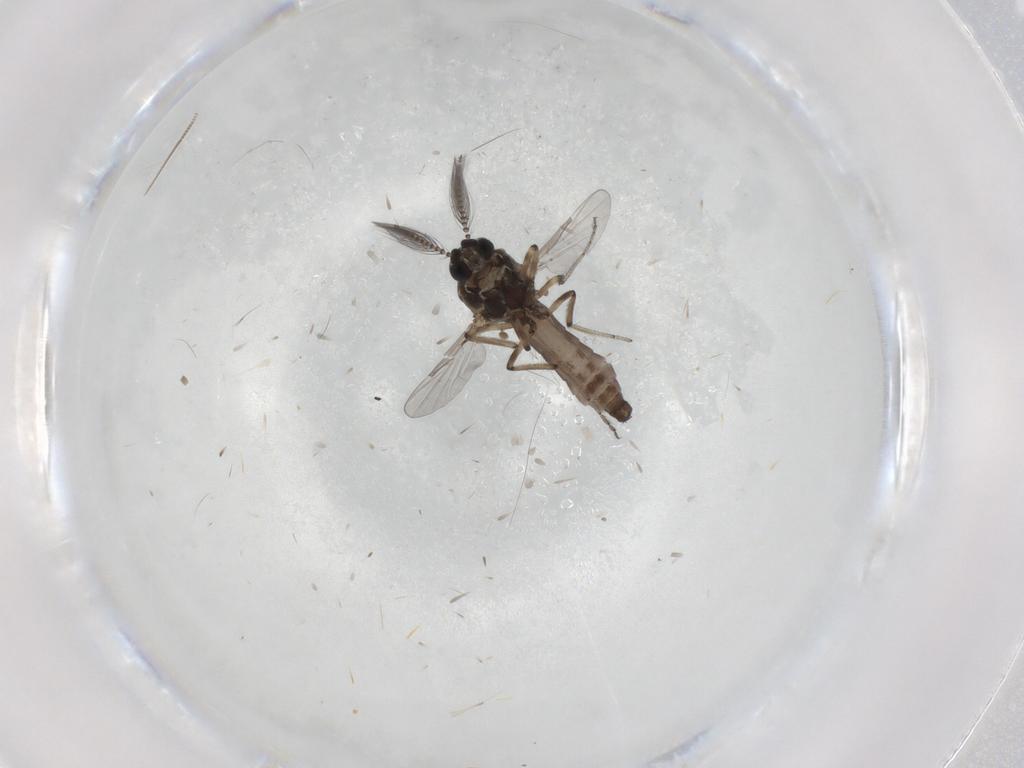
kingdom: Animalia
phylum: Arthropoda
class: Insecta
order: Diptera
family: Ceratopogonidae
